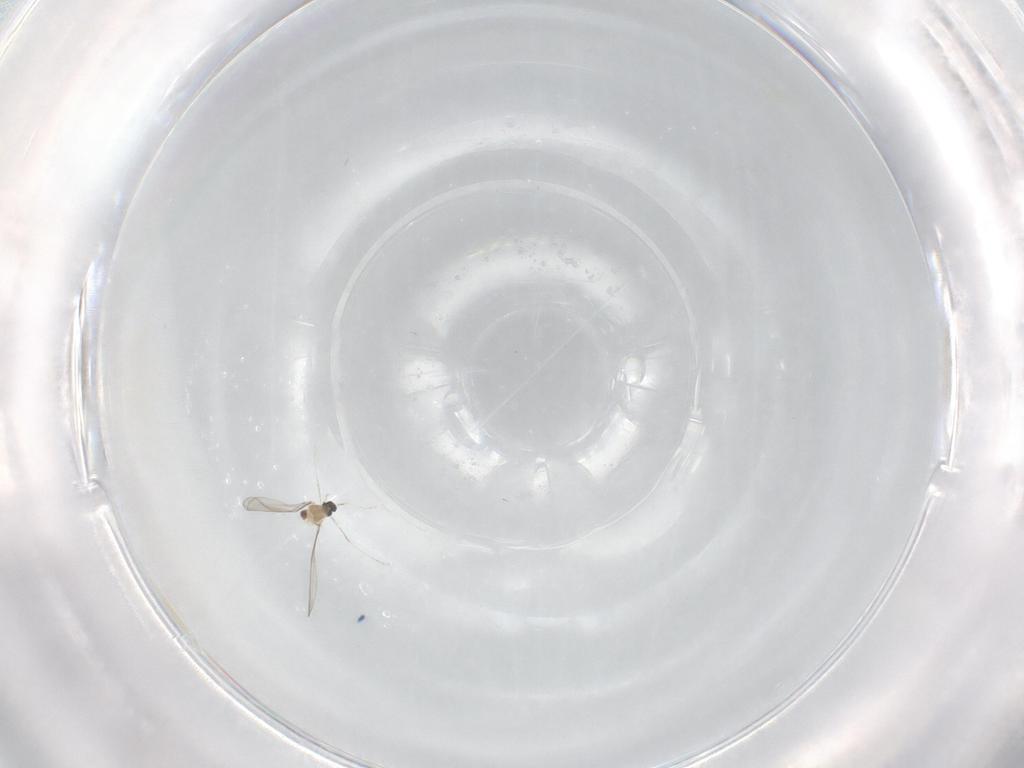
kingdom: Animalia
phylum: Arthropoda
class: Insecta
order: Diptera
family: Cecidomyiidae
